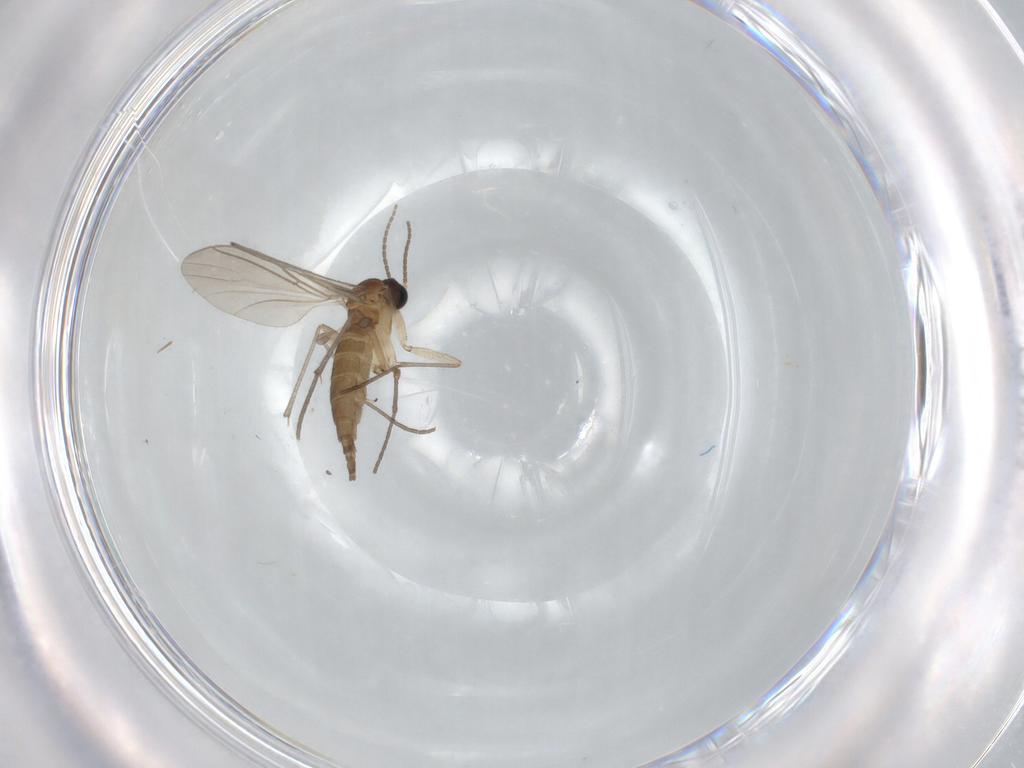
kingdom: Animalia
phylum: Arthropoda
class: Insecta
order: Diptera
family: Sciaridae
